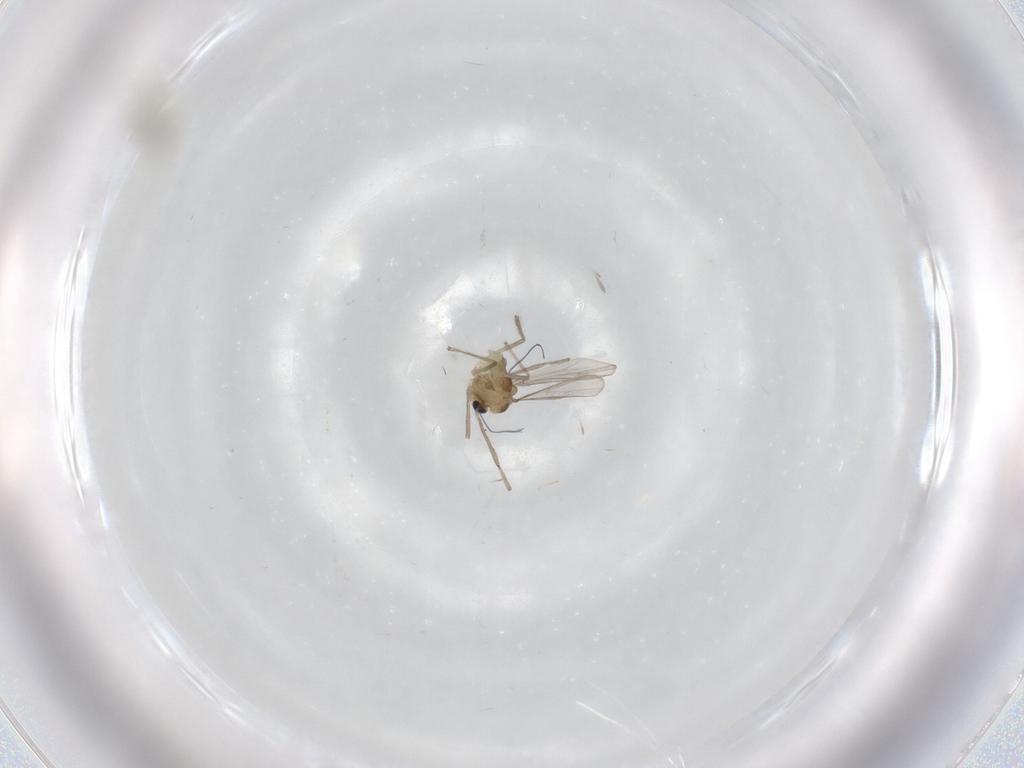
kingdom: Animalia
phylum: Arthropoda
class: Insecta
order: Diptera
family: Chironomidae
